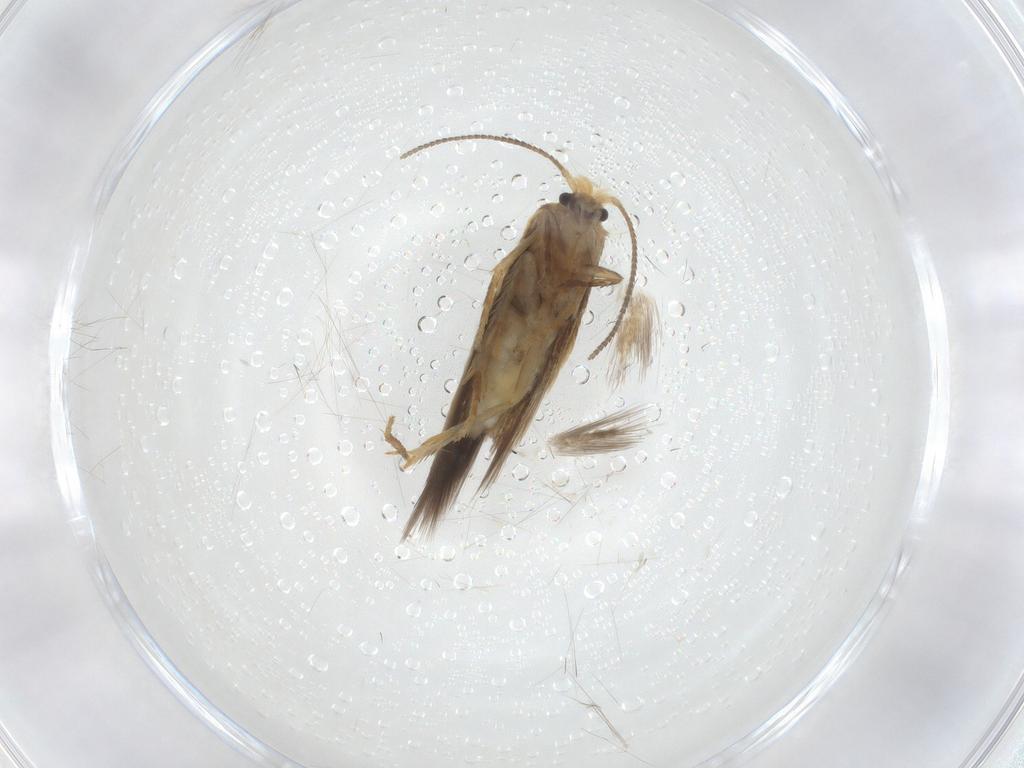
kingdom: Animalia
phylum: Arthropoda
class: Insecta
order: Lepidoptera
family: Nepticulidae
